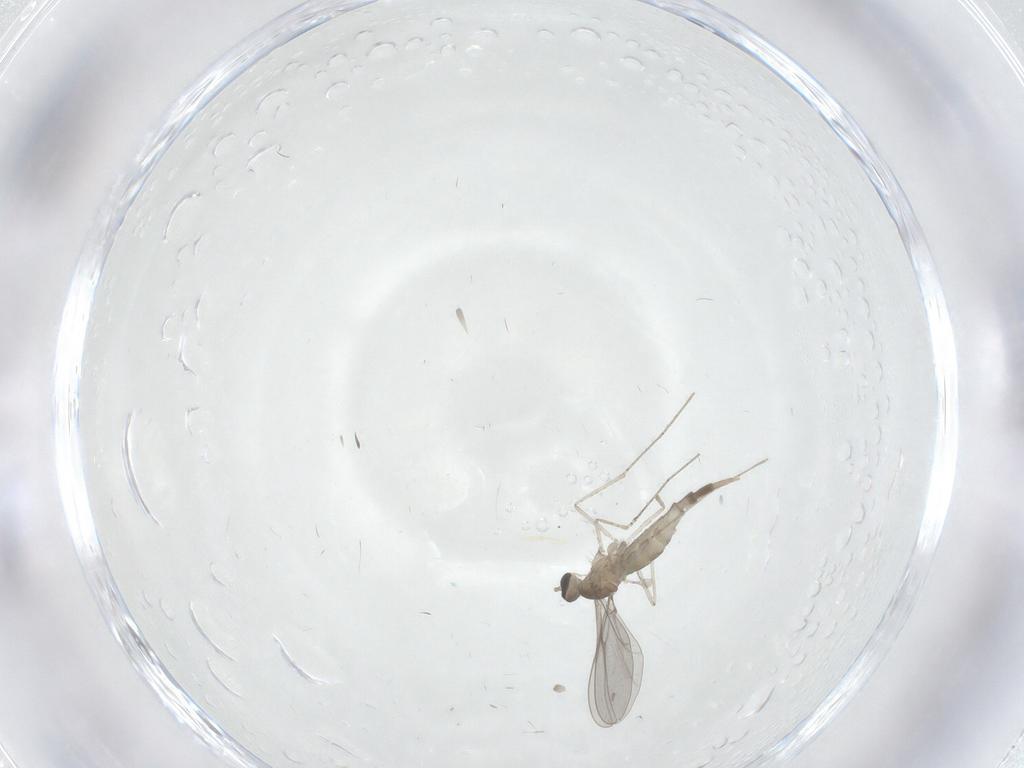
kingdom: Animalia
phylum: Arthropoda
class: Insecta
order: Diptera
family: Cecidomyiidae
